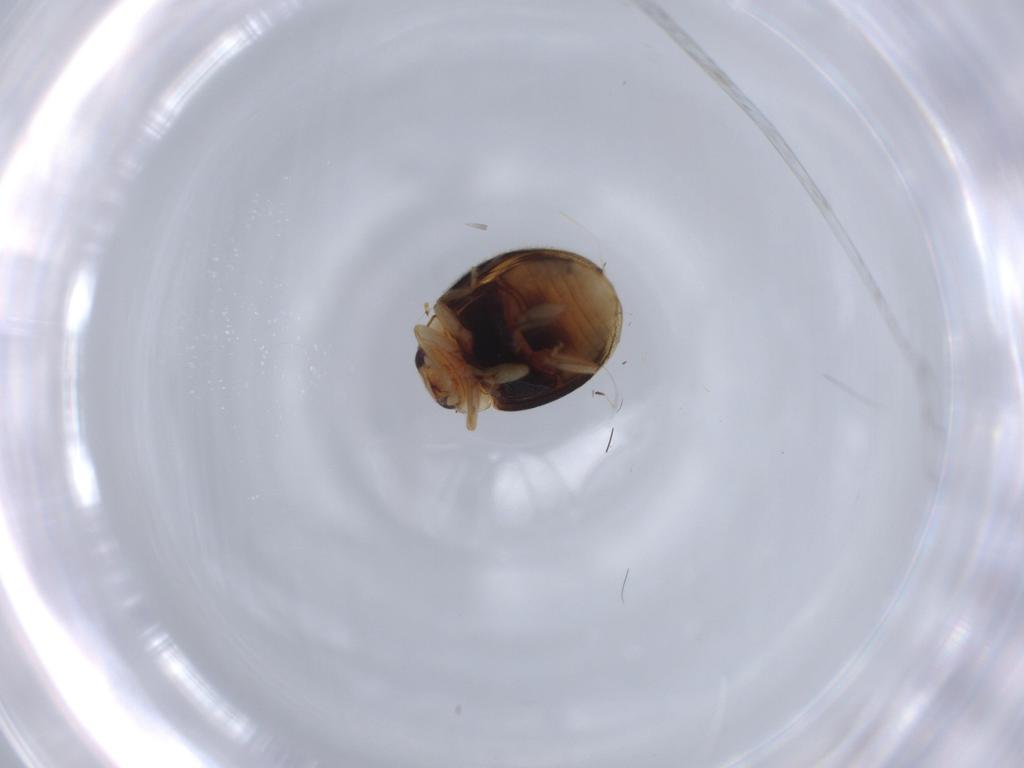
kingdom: Animalia
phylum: Arthropoda
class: Insecta
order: Coleoptera
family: Coccinellidae
